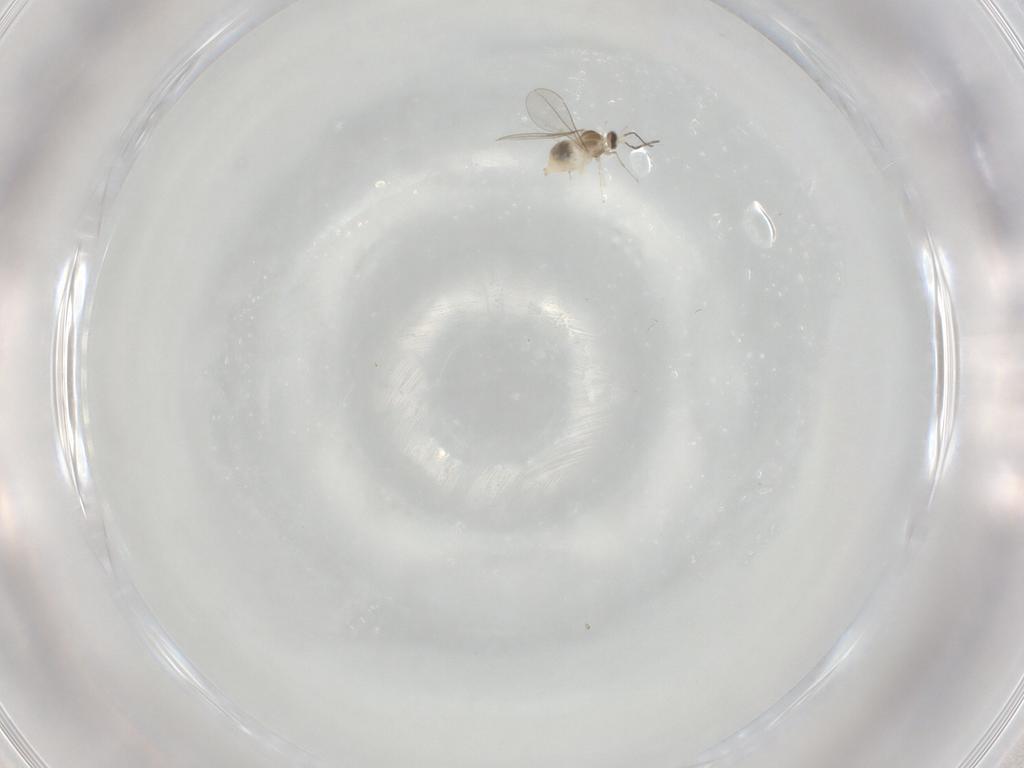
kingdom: Animalia
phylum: Arthropoda
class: Insecta
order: Diptera
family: Cecidomyiidae
